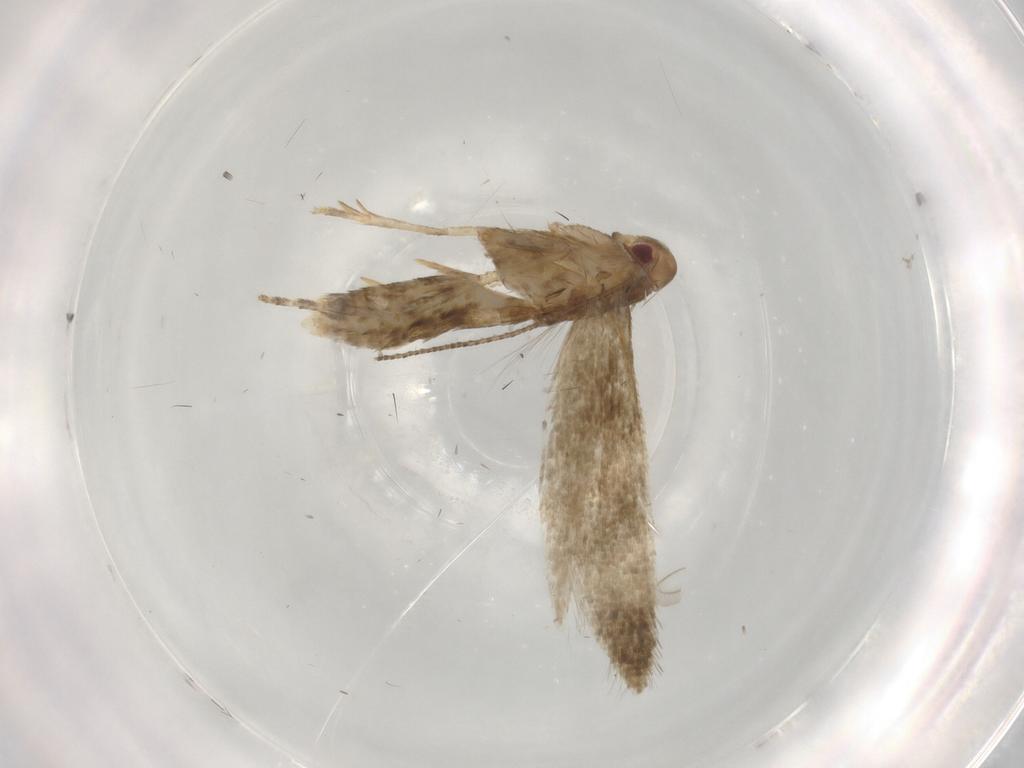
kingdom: Animalia
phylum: Arthropoda
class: Insecta
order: Lepidoptera
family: Momphidae
